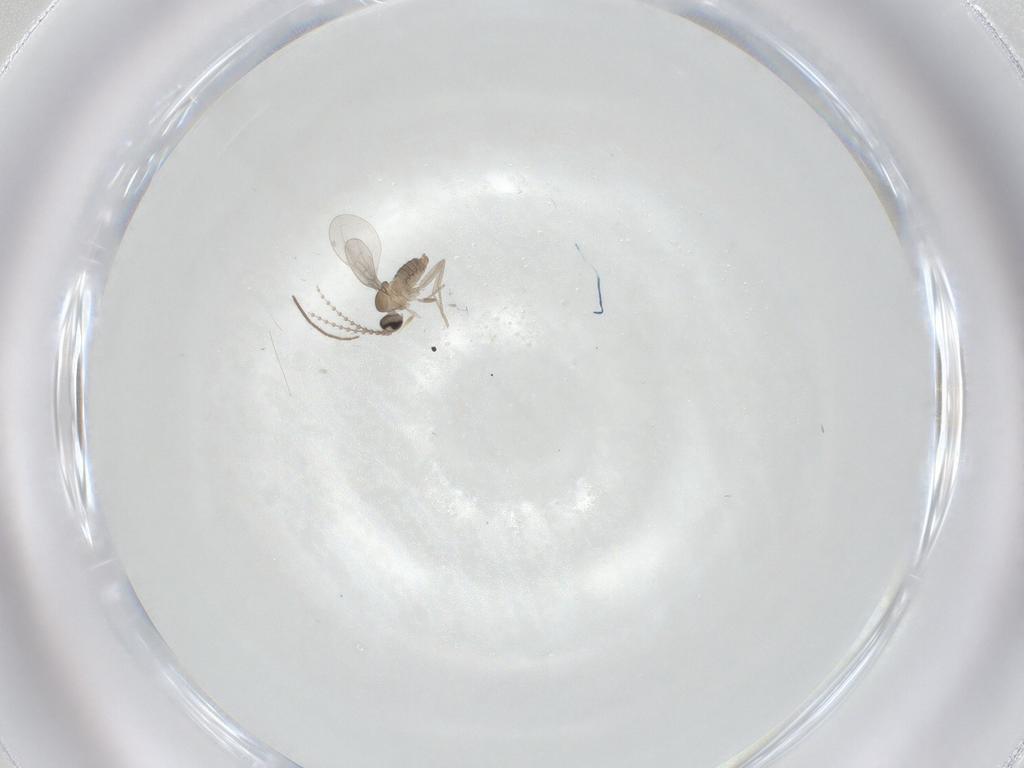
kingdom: Animalia
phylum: Arthropoda
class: Insecta
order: Diptera
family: Cecidomyiidae
